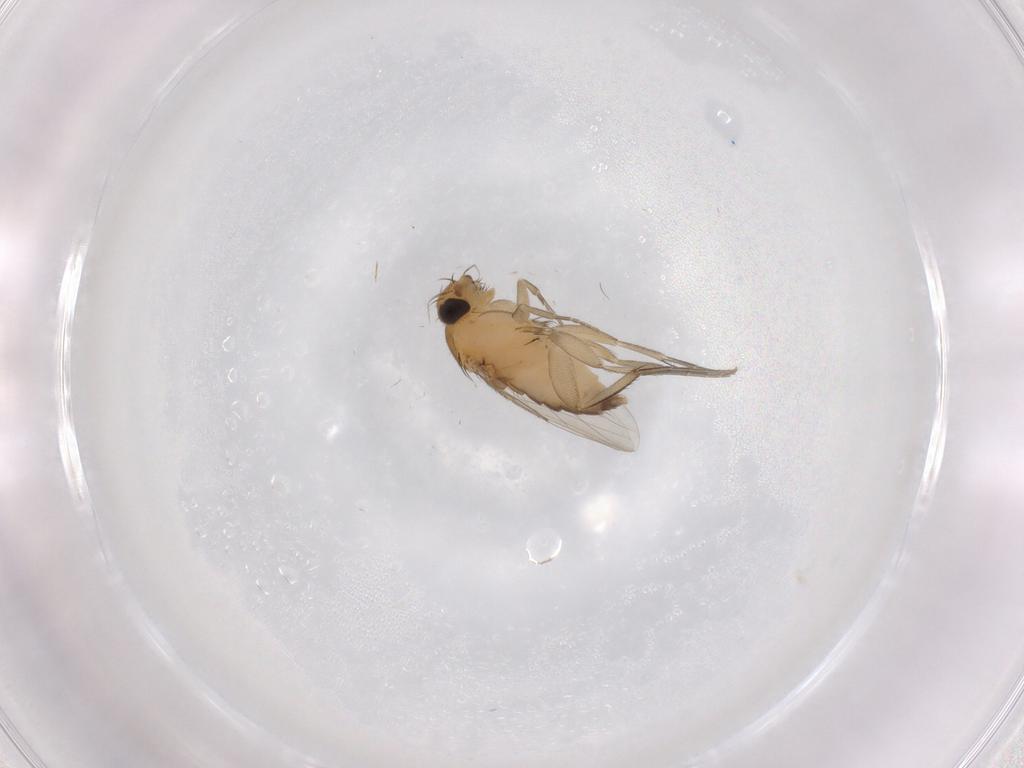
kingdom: Animalia
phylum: Arthropoda
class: Insecta
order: Diptera
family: Phoridae
